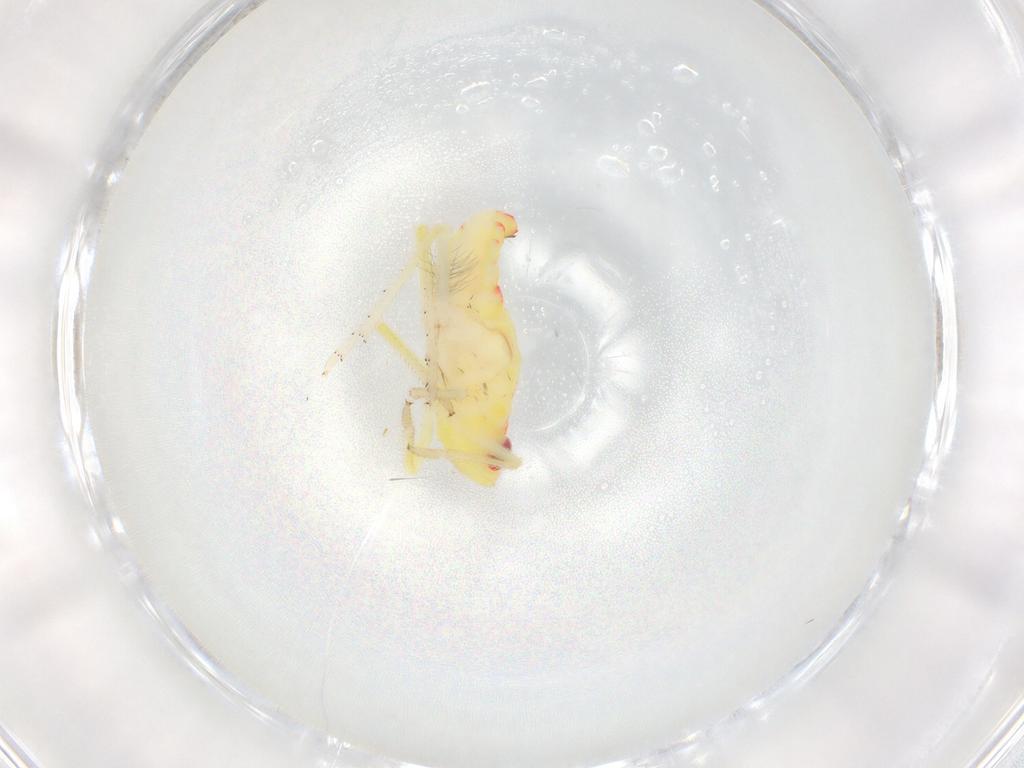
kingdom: Animalia
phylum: Arthropoda
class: Insecta
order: Hemiptera
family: Tropiduchidae
